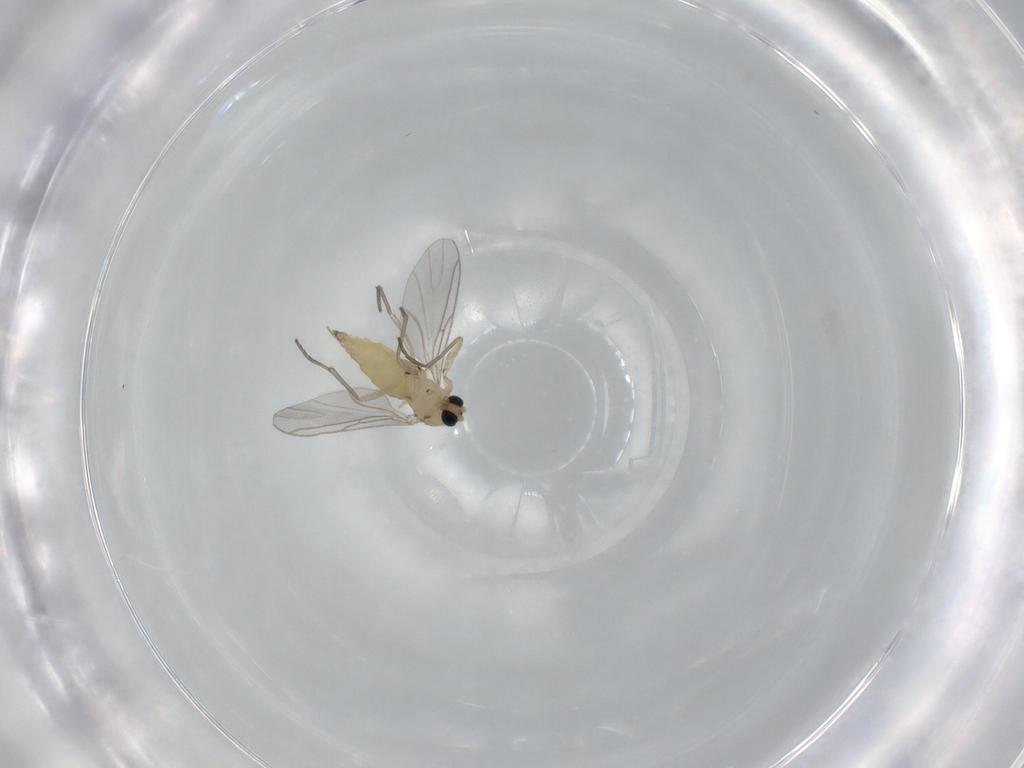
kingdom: Animalia
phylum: Arthropoda
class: Insecta
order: Diptera
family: Sciaridae
